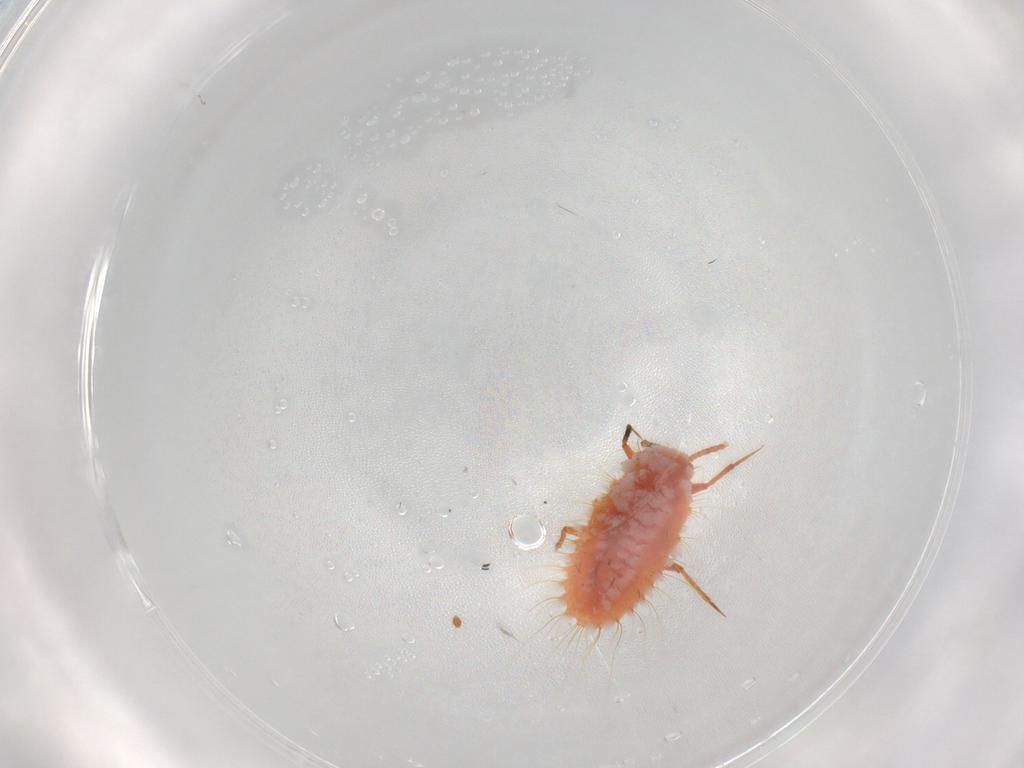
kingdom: Animalia
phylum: Arthropoda
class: Insecta
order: Hemiptera
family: Coccoidea_incertae_sedis
